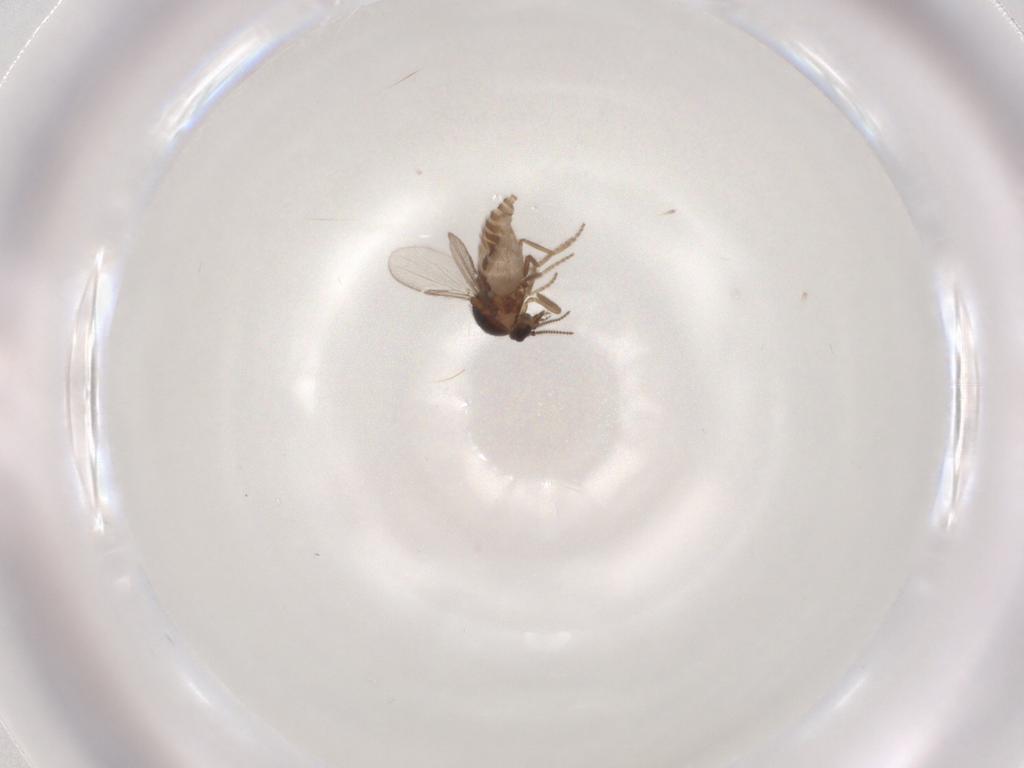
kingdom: Animalia
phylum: Arthropoda
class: Insecta
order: Diptera
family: Ceratopogonidae
